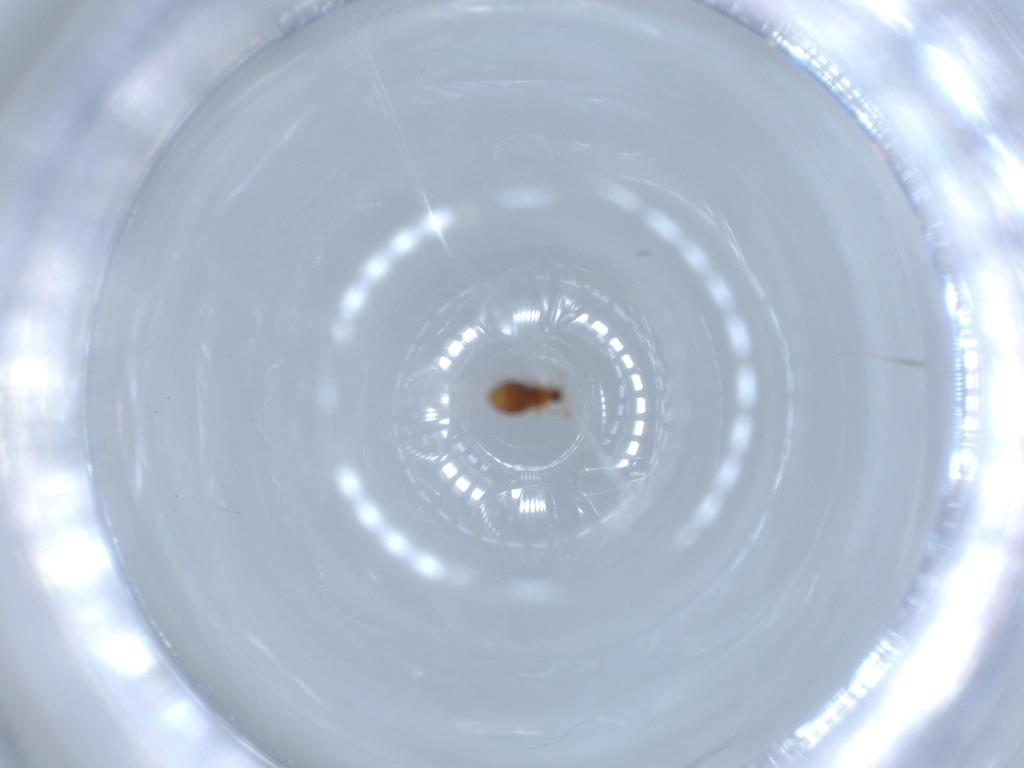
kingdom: Animalia
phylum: Arthropoda
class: Insecta
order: Coleoptera
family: Staphylinidae
